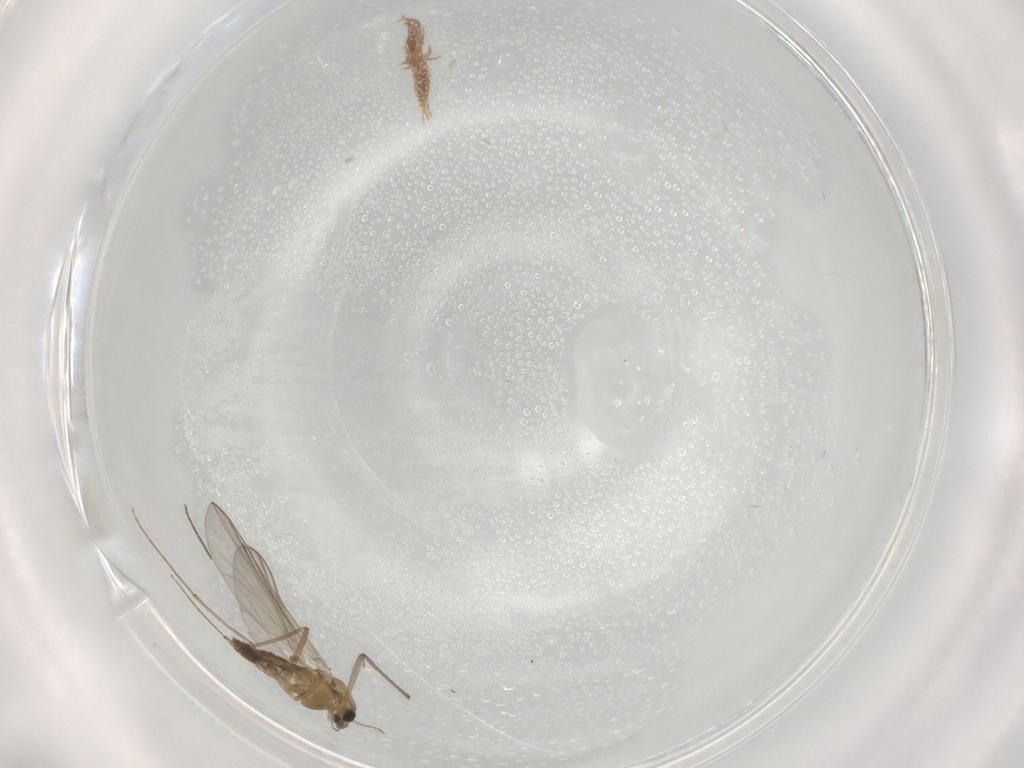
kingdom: Animalia
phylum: Arthropoda
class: Insecta
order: Diptera
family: Chironomidae
